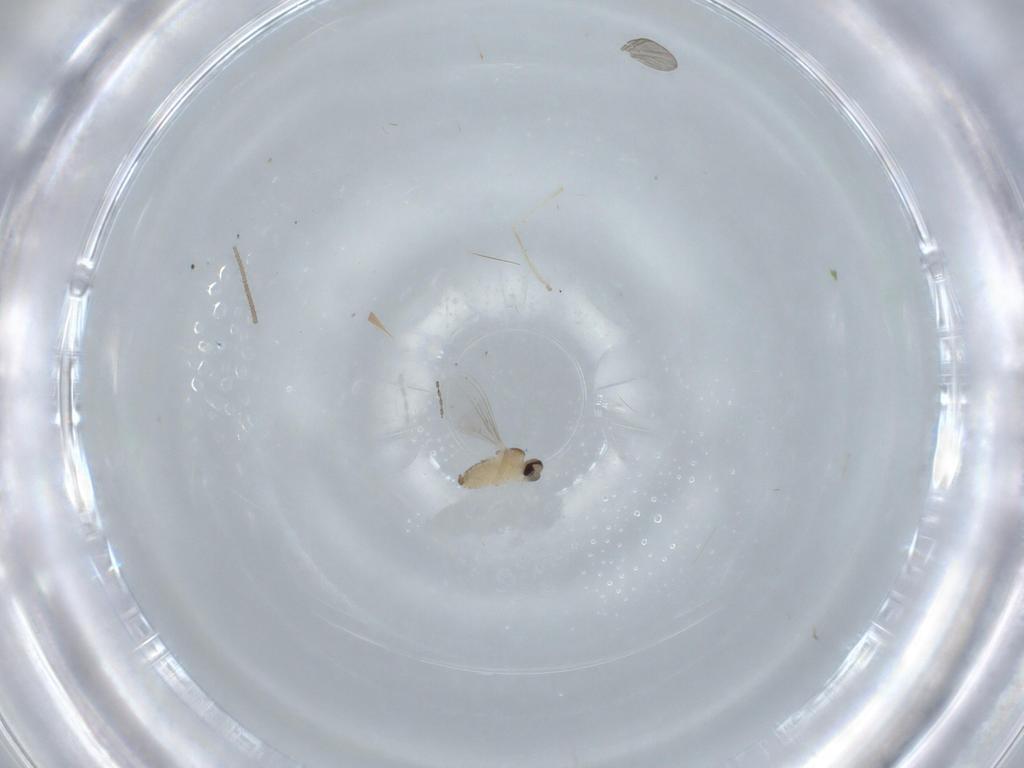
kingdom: Animalia
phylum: Arthropoda
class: Insecta
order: Diptera
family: Cecidomyiidae
